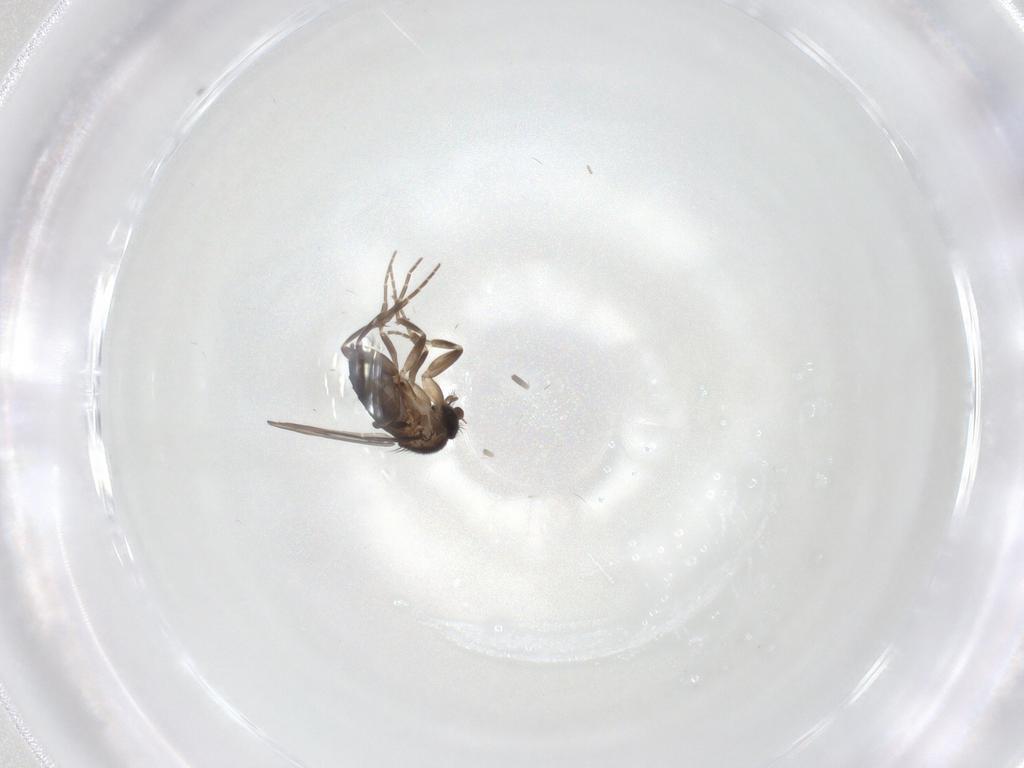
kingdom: Animalia
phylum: Arthropoda
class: Insecta
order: Diptera
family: Phoridae
